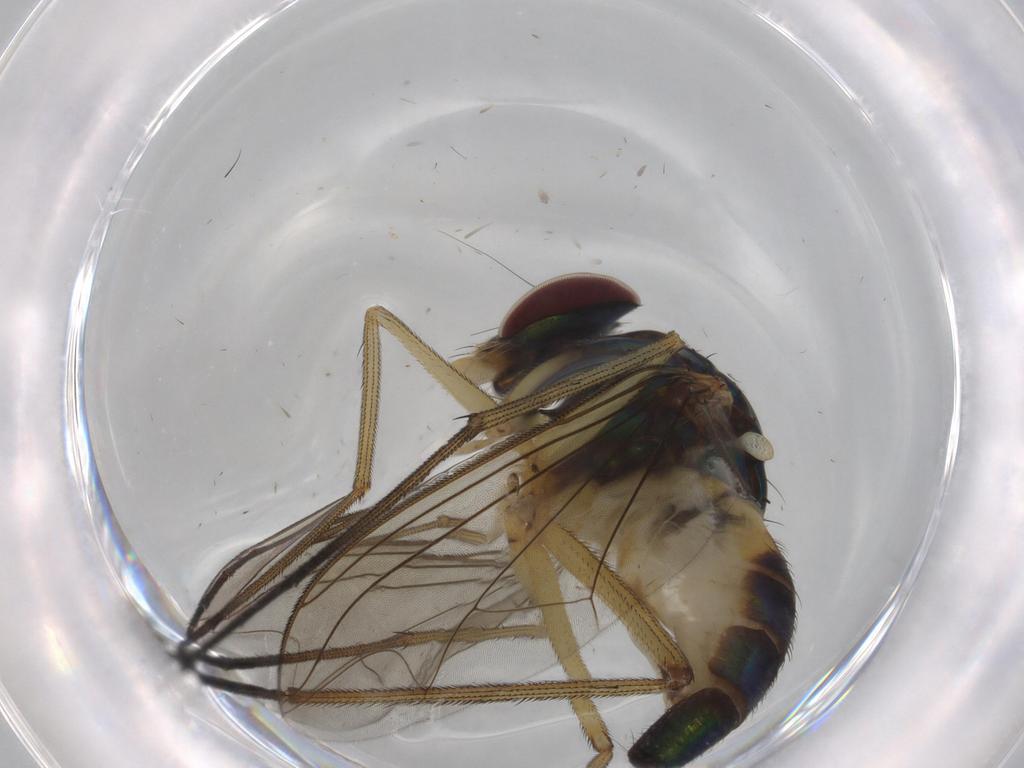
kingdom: Animalia
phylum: Arthropoda
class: Insecta
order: Diptera
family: Dolichopodidae
